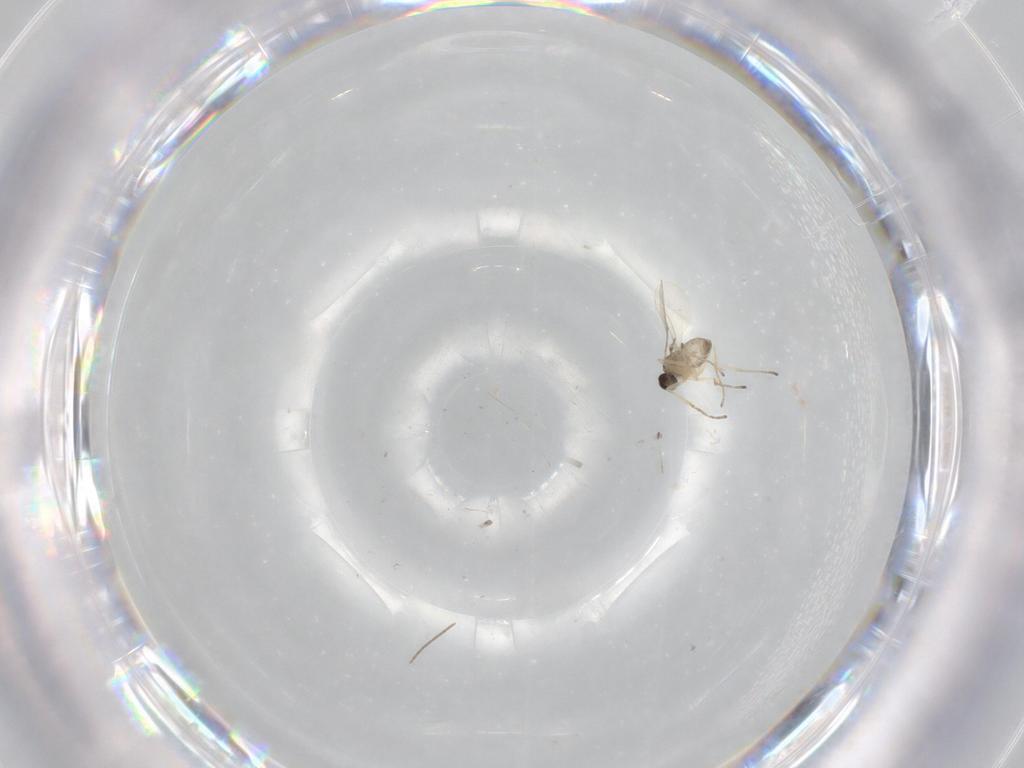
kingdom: Animalia
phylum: Arthropoda
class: Insecta
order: Diptera
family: Cecidomyiidae
